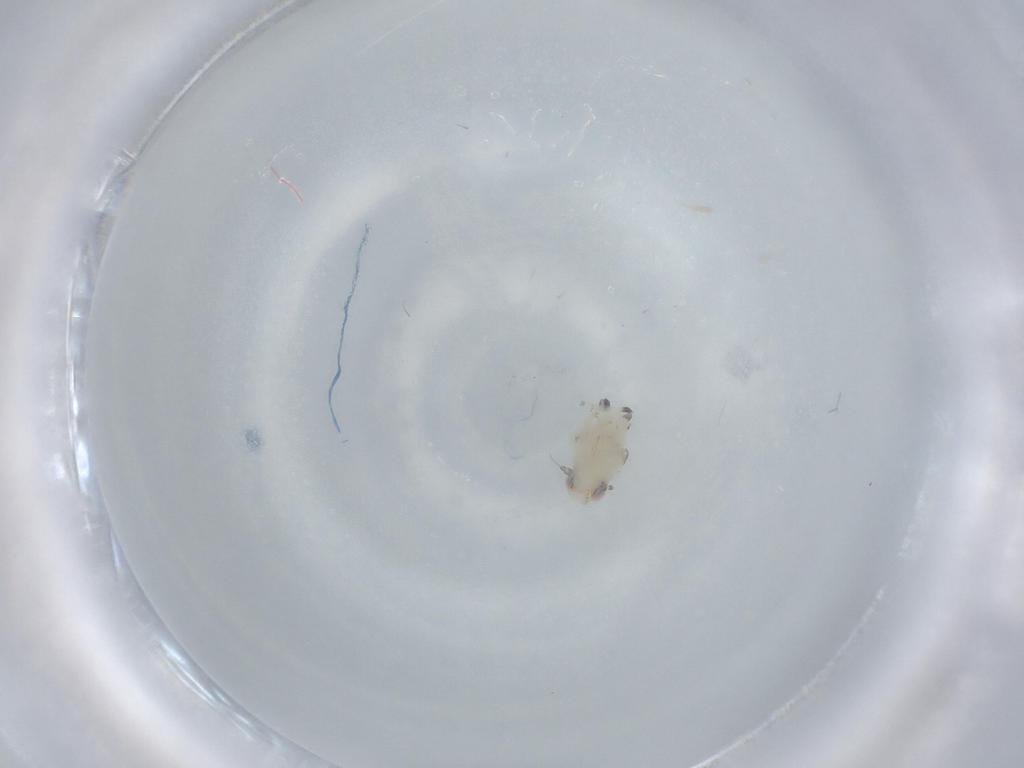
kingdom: Animalia
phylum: Arthropoda
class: Insecta
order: Hemiptera
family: Nogodinidae
